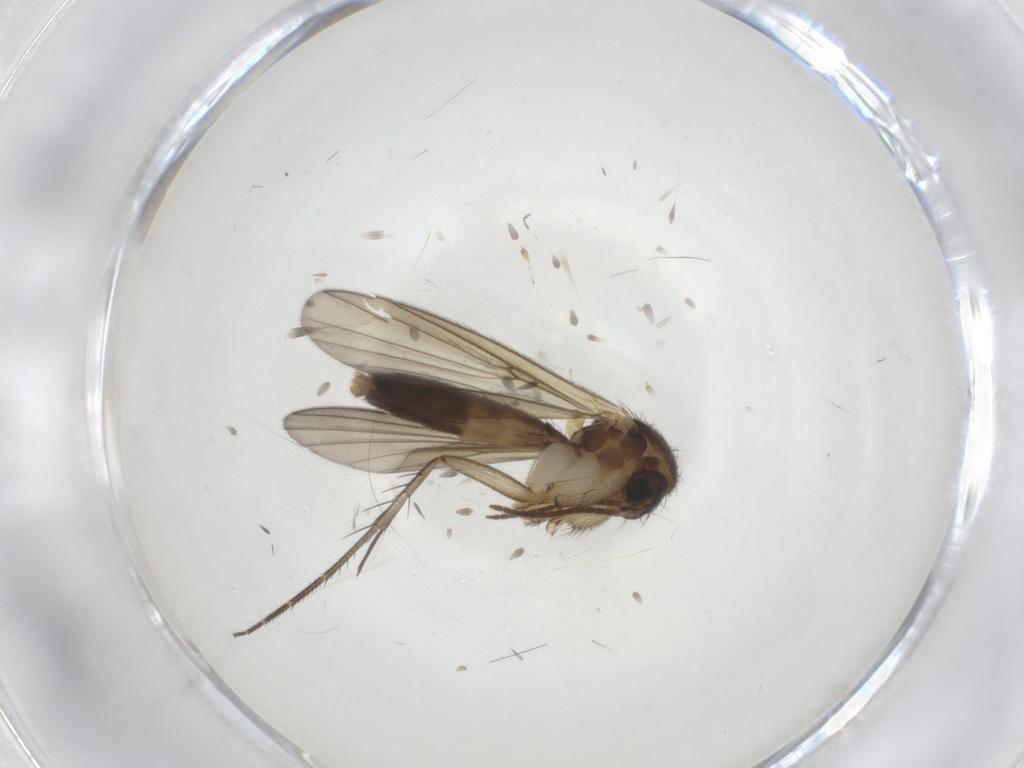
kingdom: Animalia
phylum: Arthropoda
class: Insecta
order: Diptera
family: Mycetophilidae
